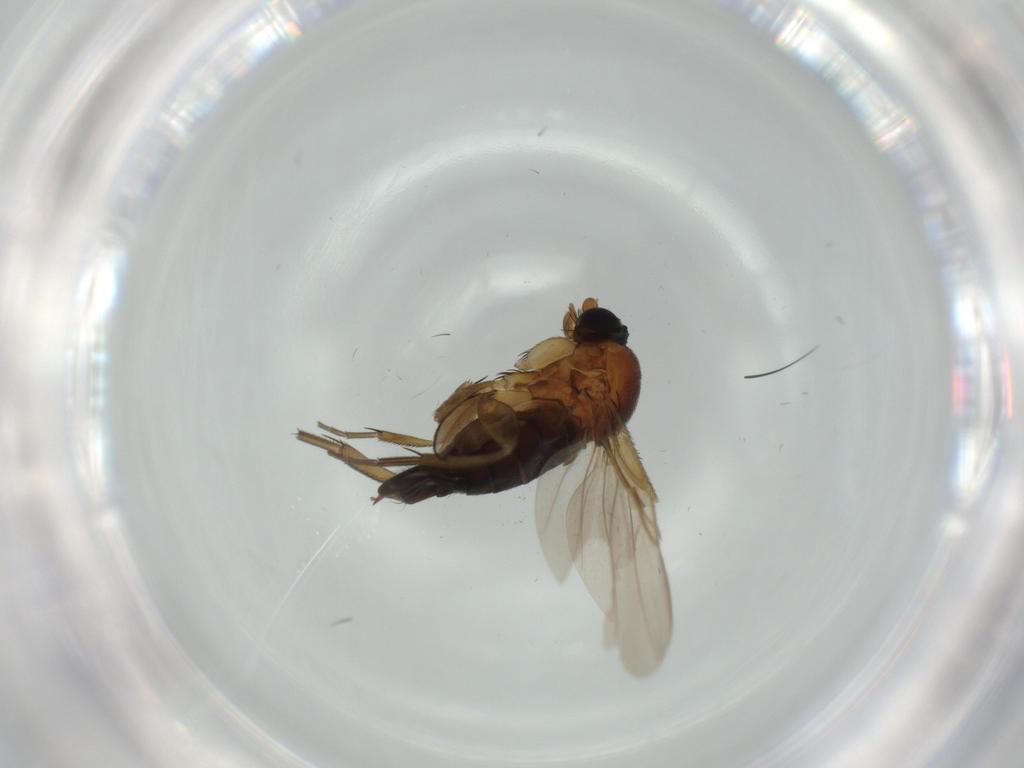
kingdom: Animalia
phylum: Arthropoda
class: Insecta
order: Diptera
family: Phoridae
